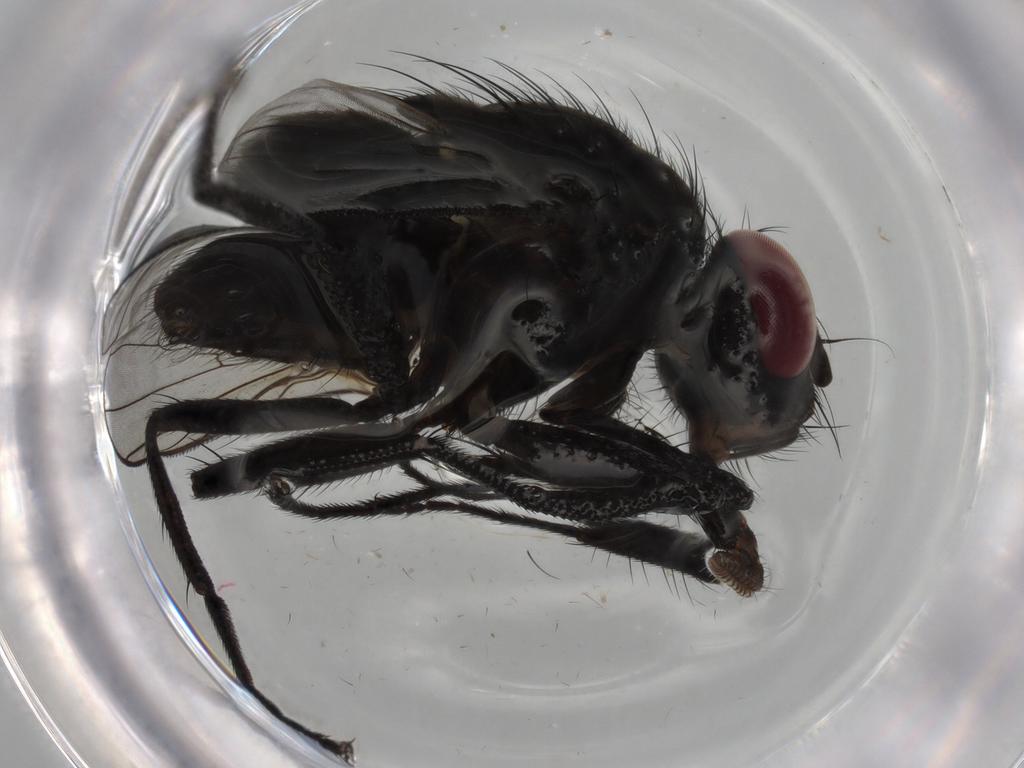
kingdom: Animalia
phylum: Arthropoda
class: Insecta
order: Diptera
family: Muscidae
